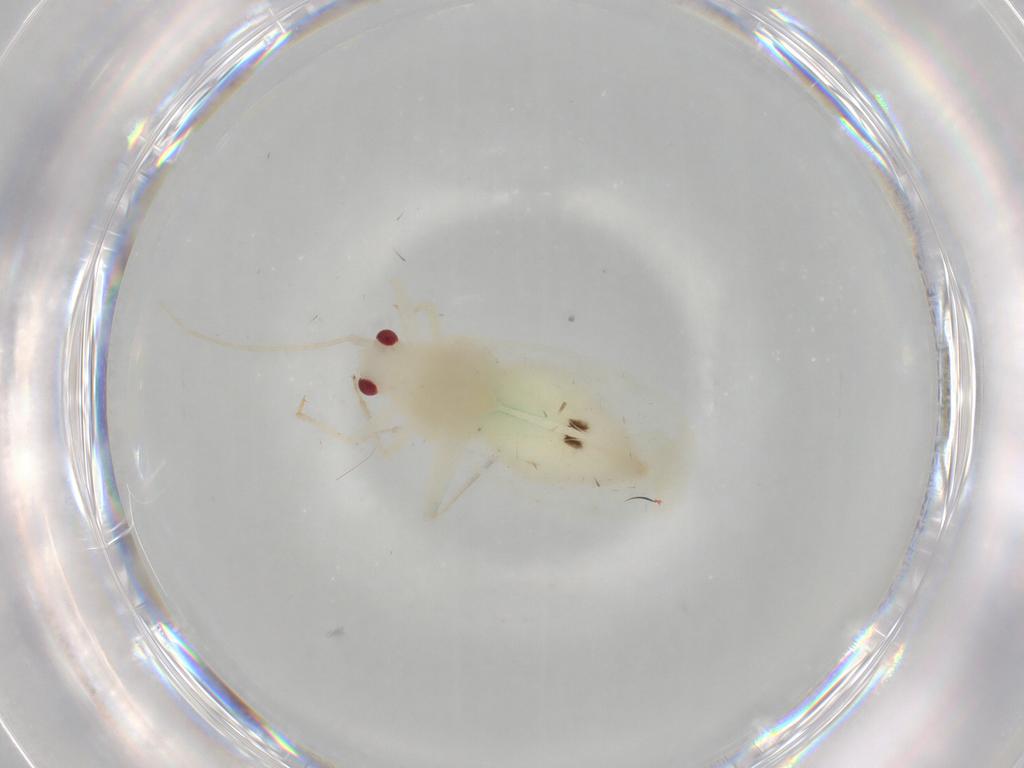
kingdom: Animalia
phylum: Arthropoda
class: Insecta
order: Hemiptera
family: Miridae
